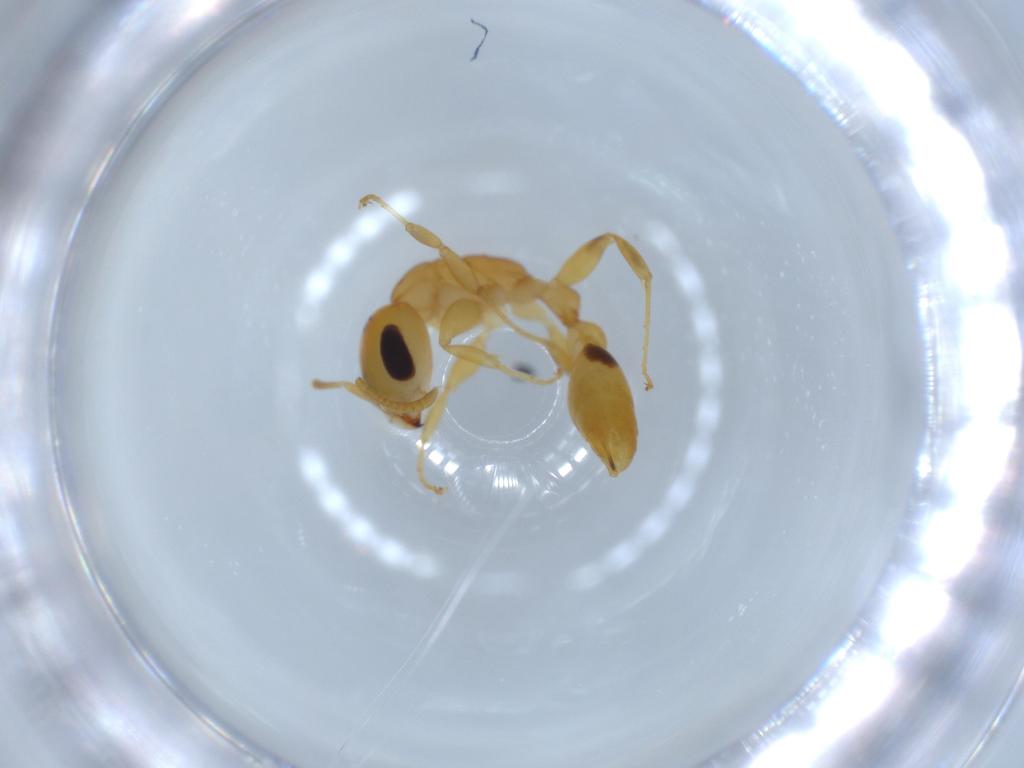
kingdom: Animalia
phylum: Arthropoda
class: Insecta
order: Hymenoptera
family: Formicidae
